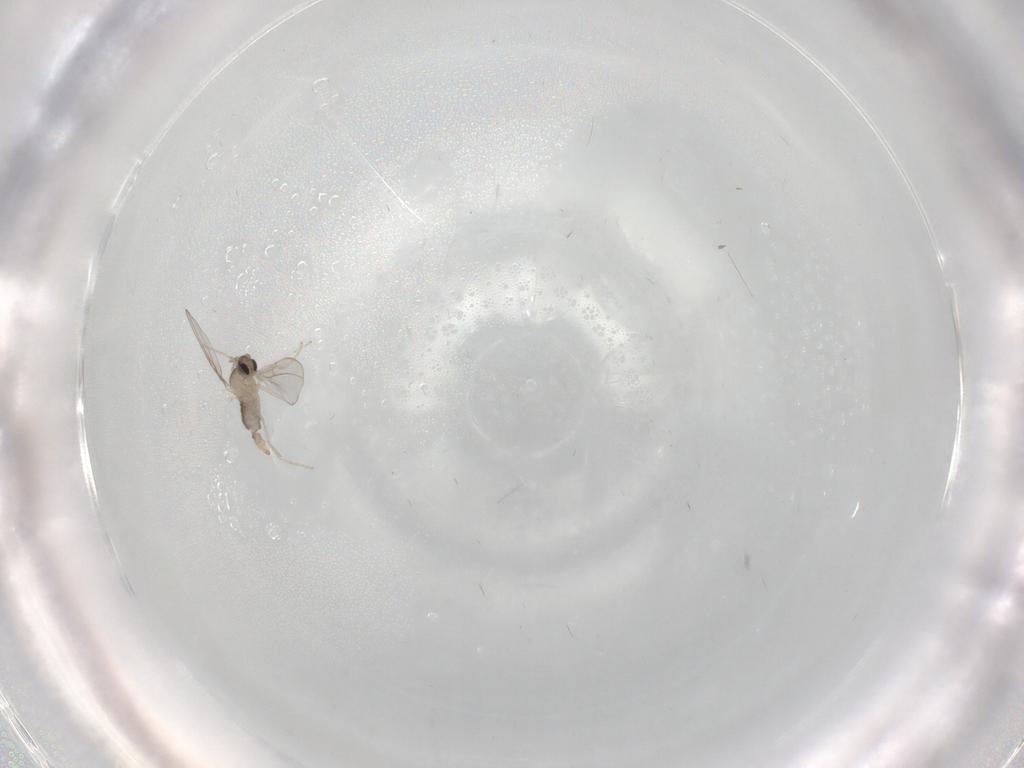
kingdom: Animalia
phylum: Arthropoda
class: Insecta
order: Diptera
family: Cecidomyiidae
